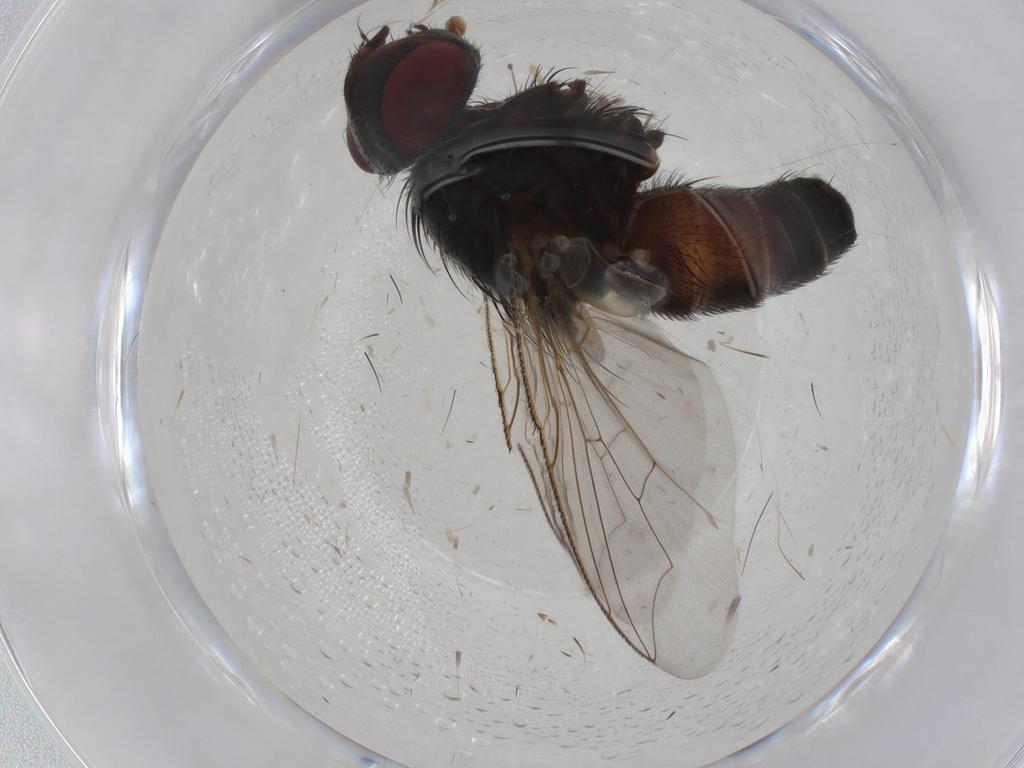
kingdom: Animalia
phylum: Arthropoda
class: Insecta
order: Diptera
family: Sarcophagidae
